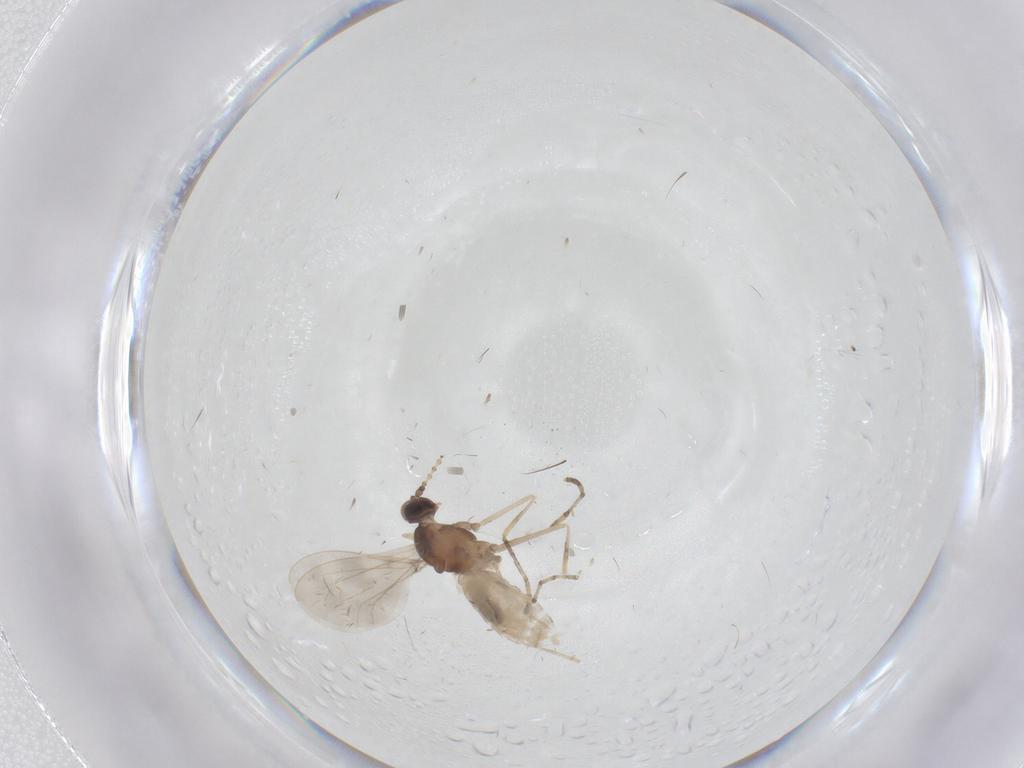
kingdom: Animalia
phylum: Arthropoda
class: Insecta
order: Diptera
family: Cecidomyiidae
